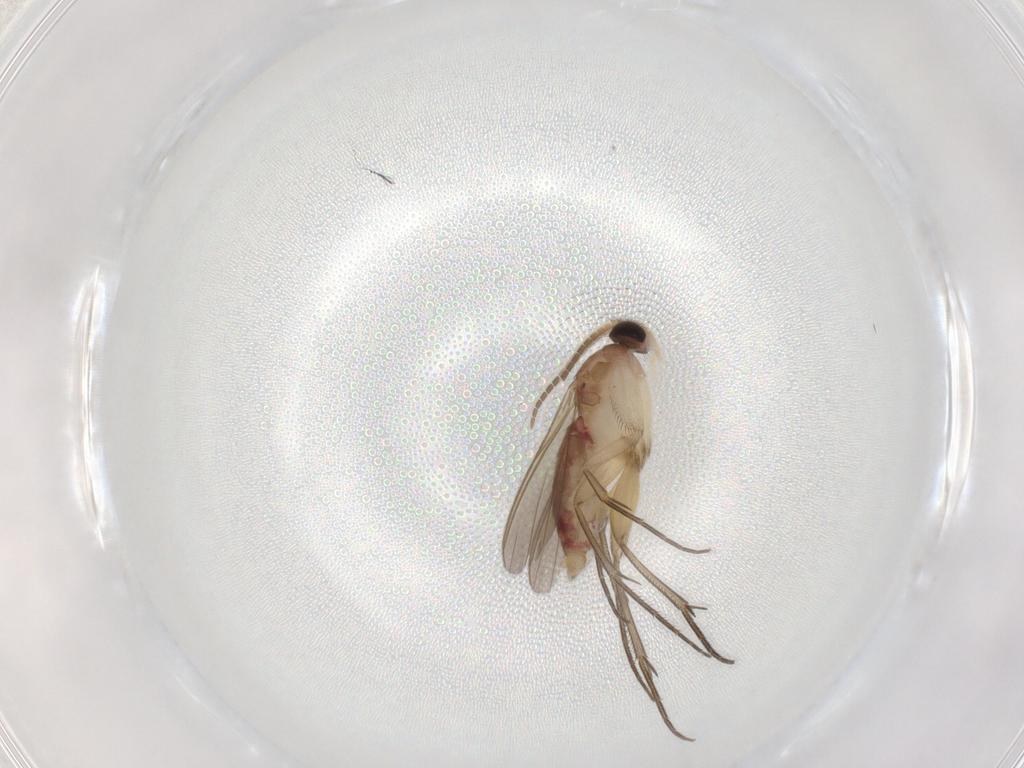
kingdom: Animalia
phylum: Arthropoda
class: Insecta
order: Diptera
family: Mycetophilidae
